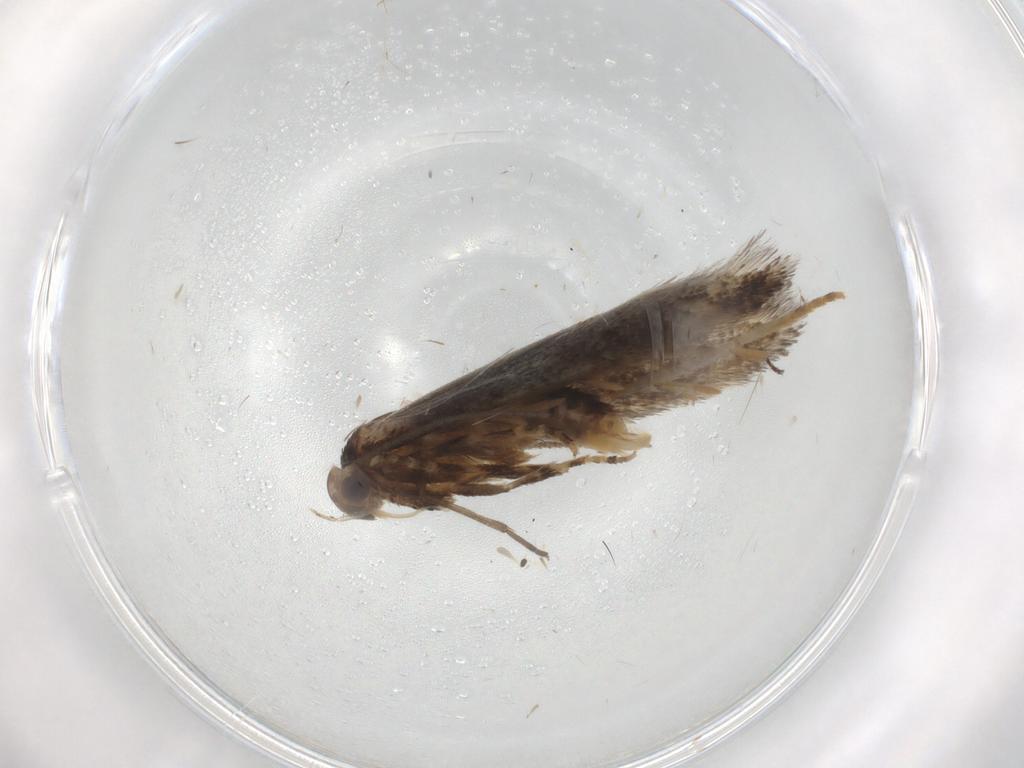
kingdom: Animalia
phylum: Arthropoda
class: Insecta
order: Lepidoptera
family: Elachistidae
